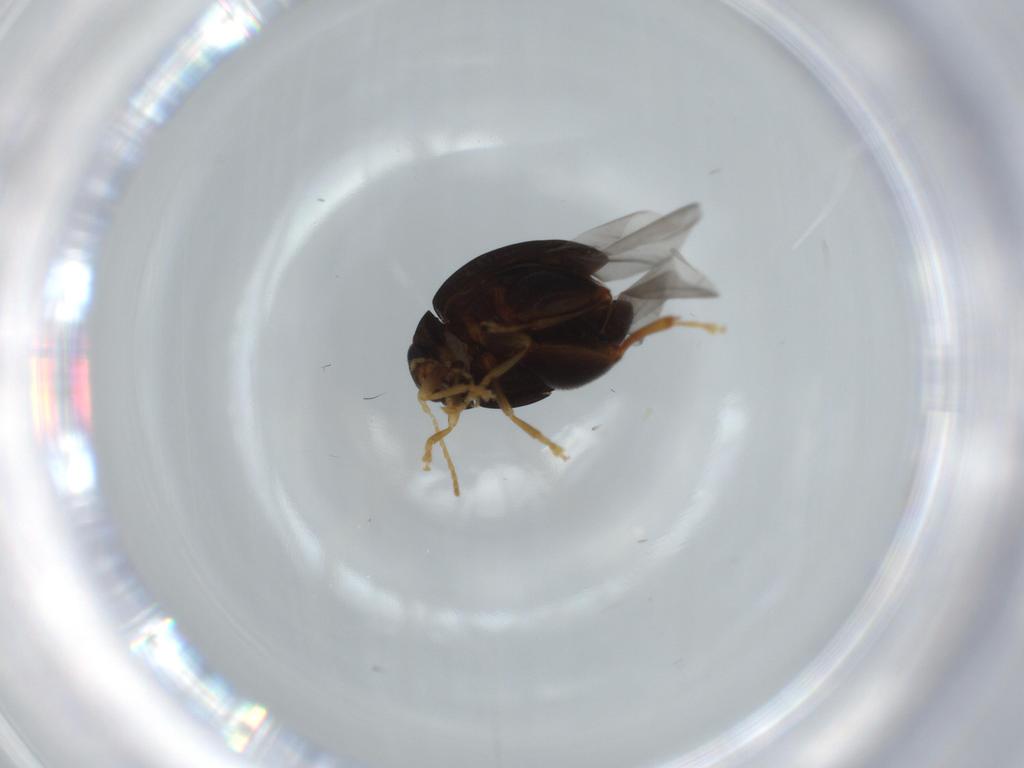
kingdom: Animalia
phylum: Arthropoda
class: Insecta
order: Coleoptera
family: Chrysomelidae
